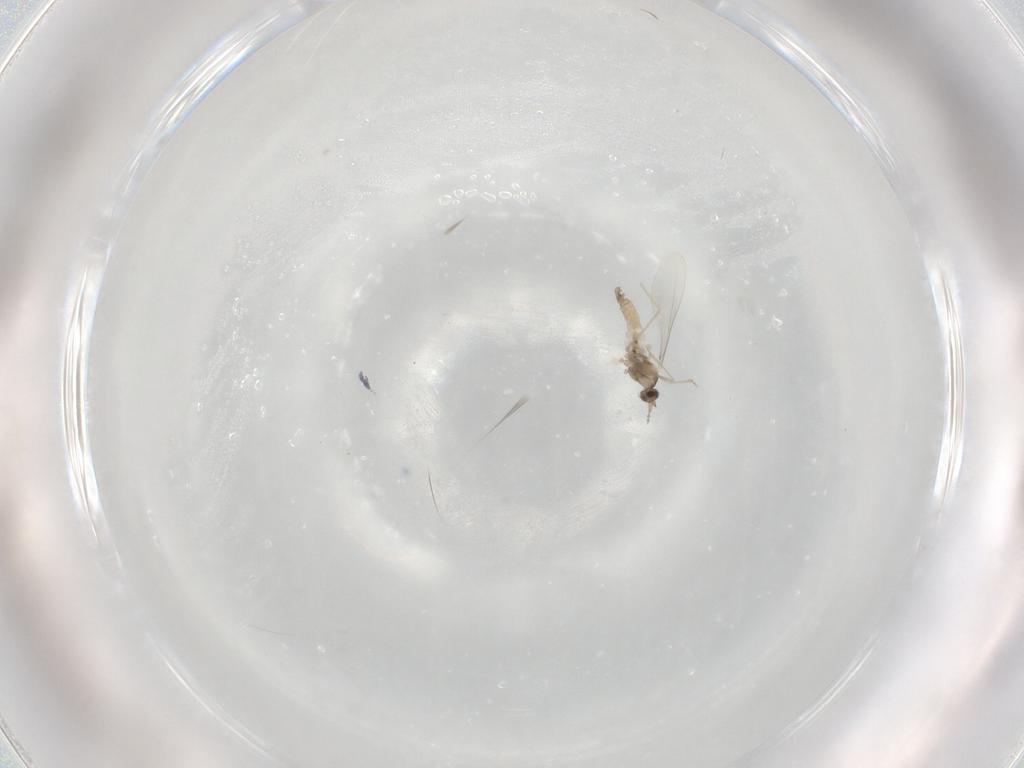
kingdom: Animalia
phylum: Arthropoda
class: Insecta
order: Diptera
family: Cecidomyiidae
